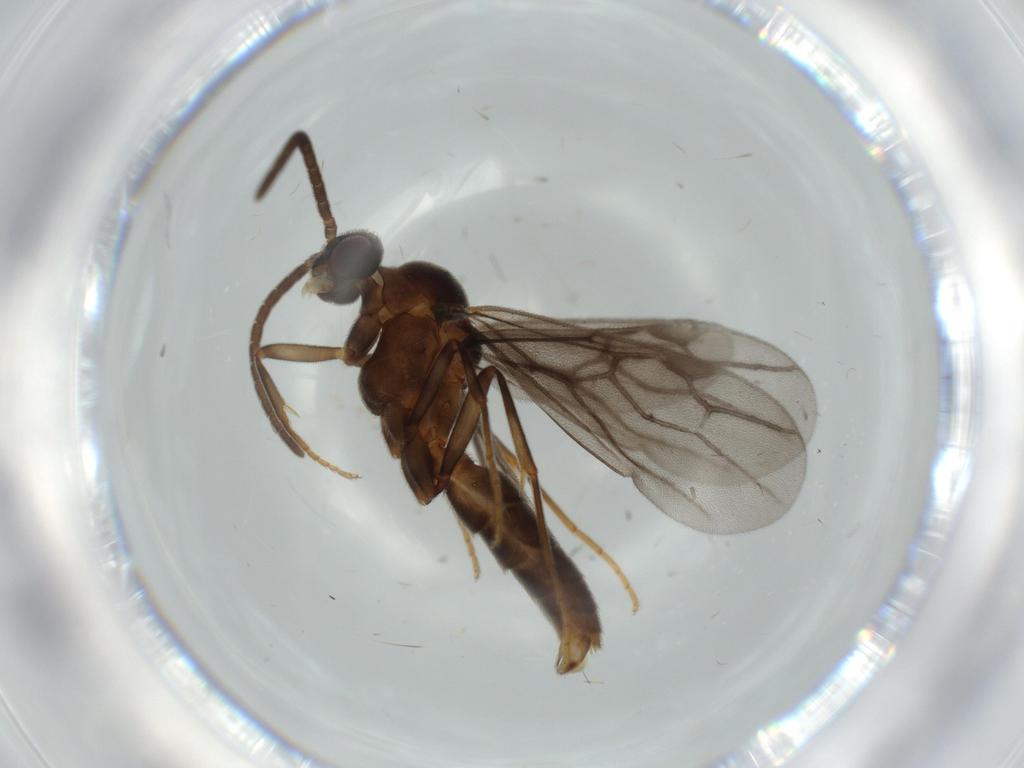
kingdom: Animalia
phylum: Arthropoda
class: Insecta
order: Hymenoptera
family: Formicidae
